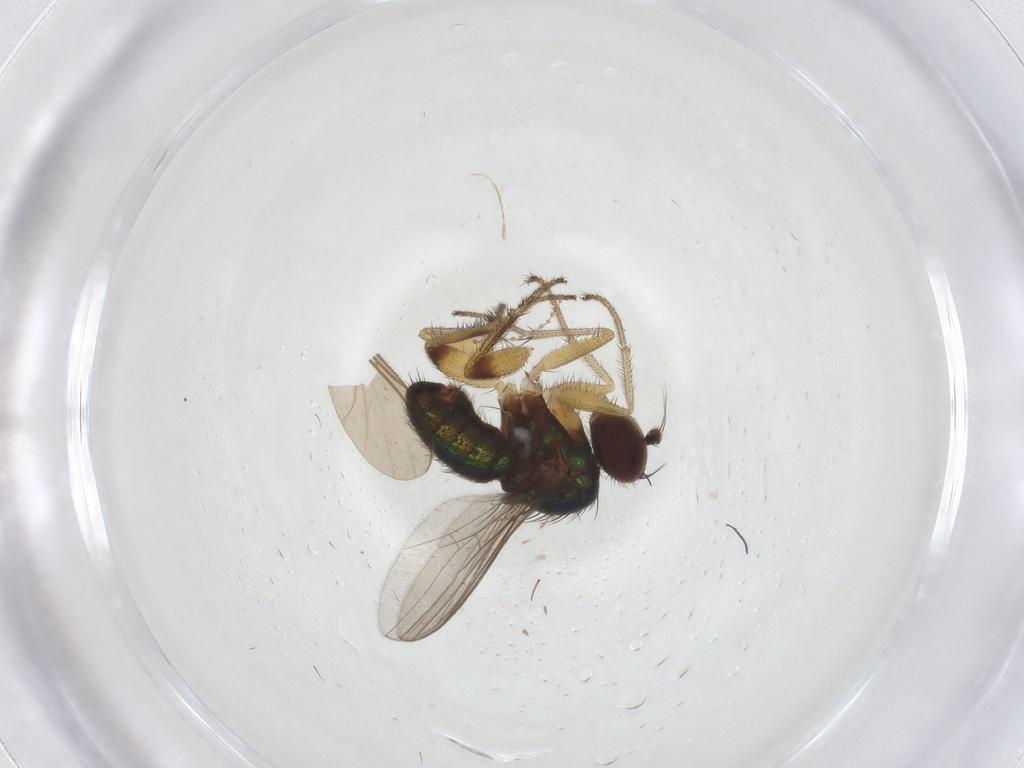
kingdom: Animalia
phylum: Arthropoda
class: Insecta
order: Diptera
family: Dolichopodidae
